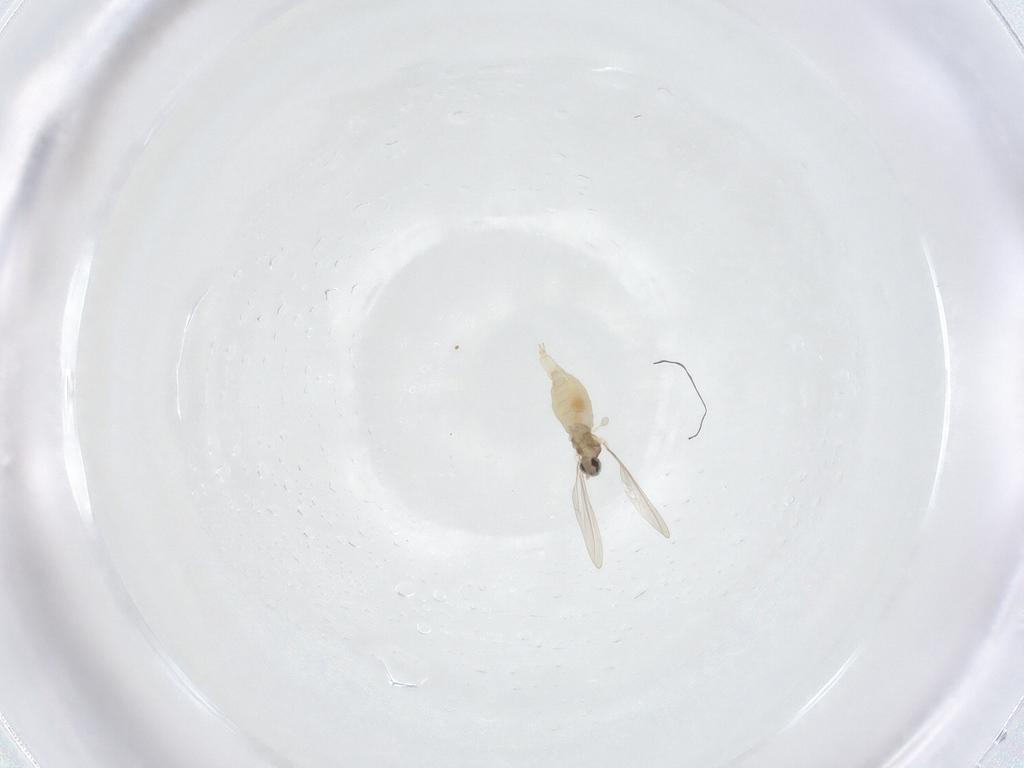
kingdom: Animalia
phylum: Arthropoda
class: Insecta
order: Diptera
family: Cecidomyiidae
